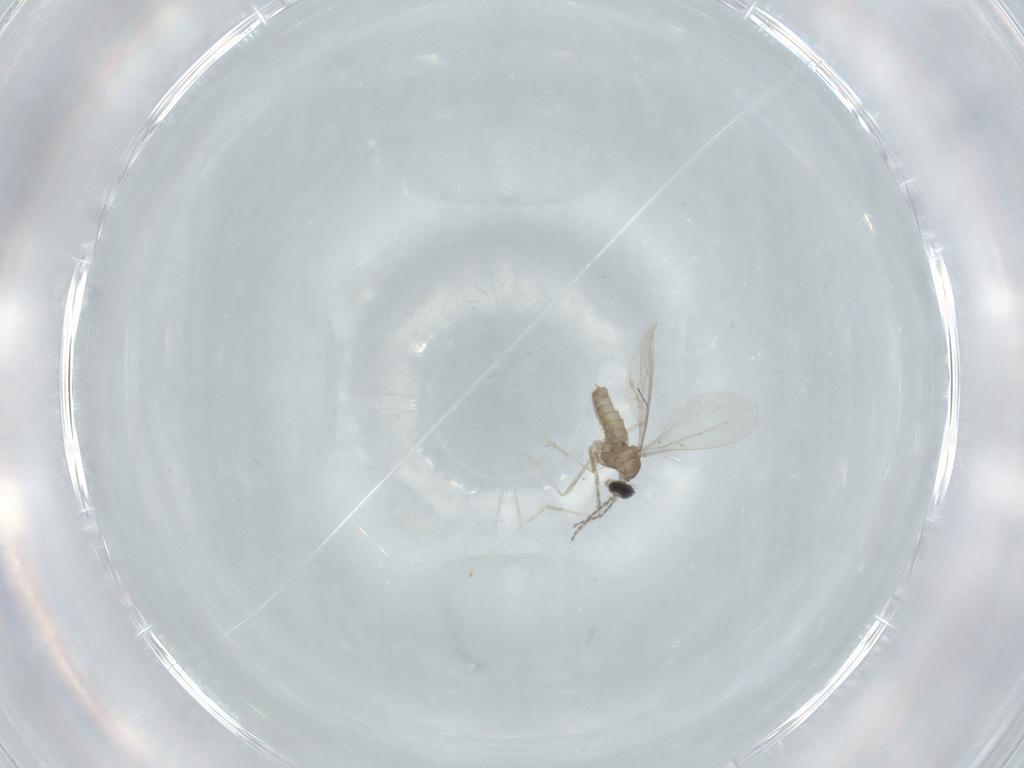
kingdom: Animalia
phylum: Arthropoda
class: Insecta
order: Diptera
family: Cecidomyiidae
